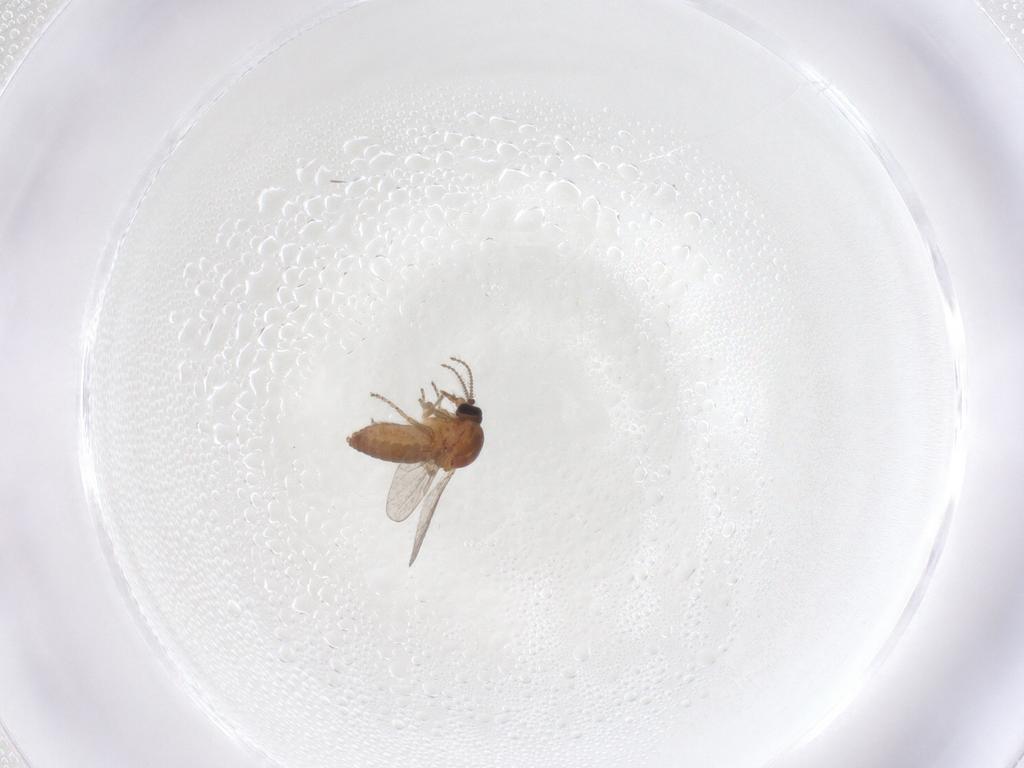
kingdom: Animalia
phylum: Arthropoda
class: Insecta
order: Diptera
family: Ceratopogonidae
